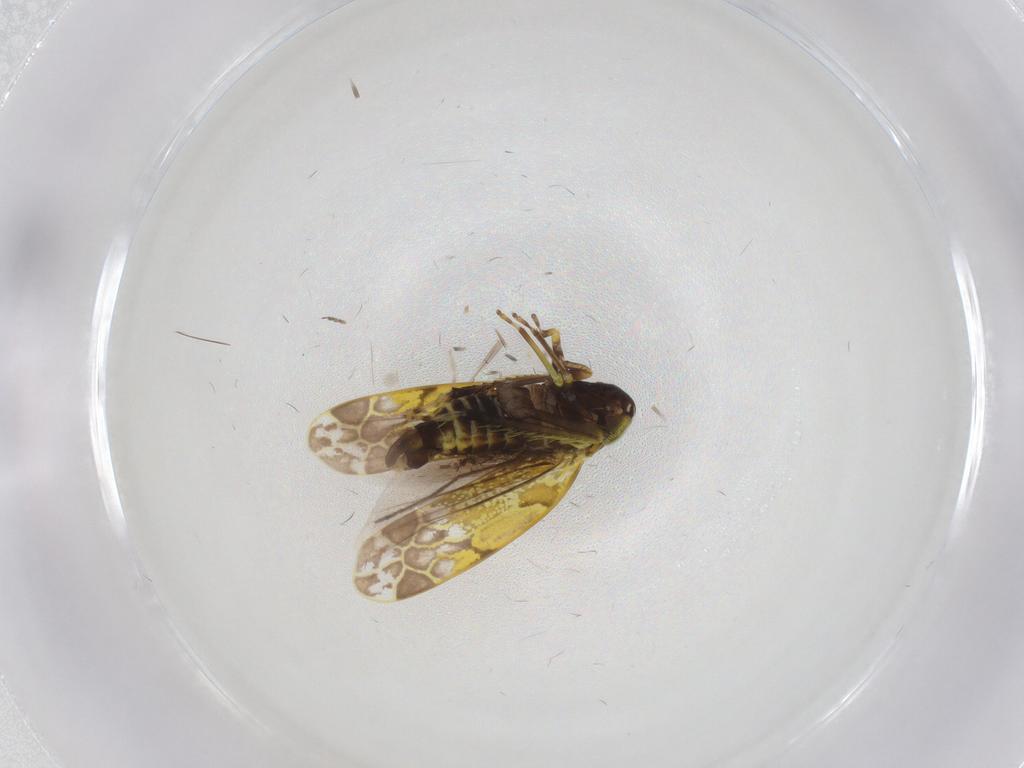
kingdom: Animalia
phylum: Arthropoda
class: Insecta
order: Hemiptera
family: Cicadellidae
